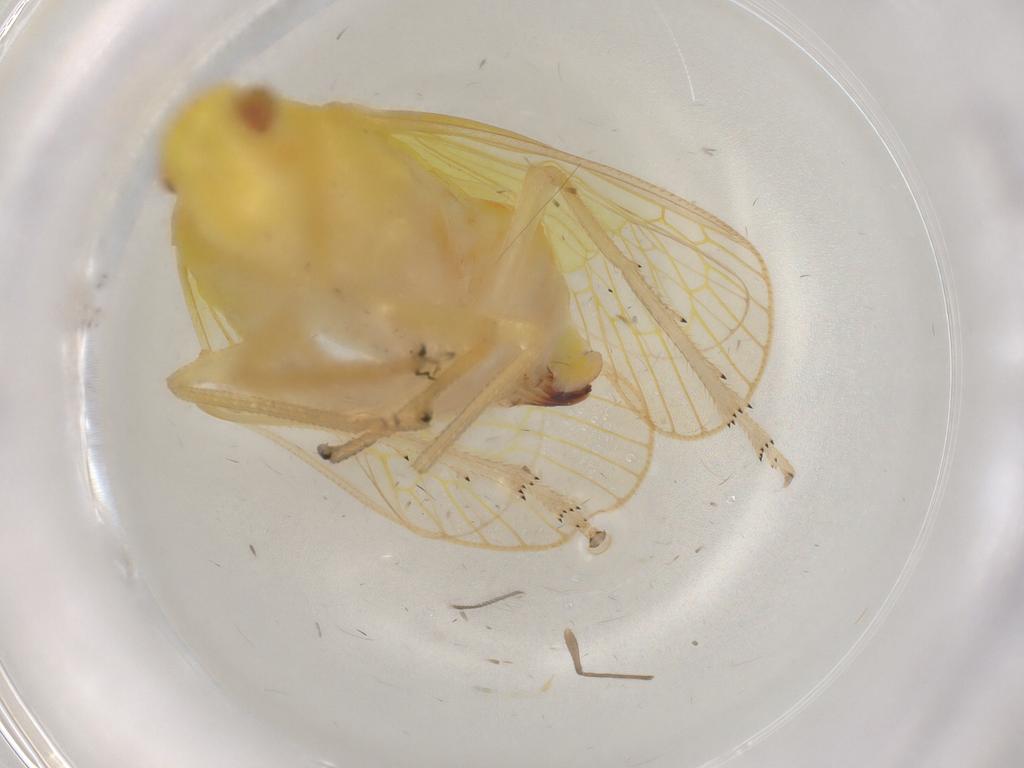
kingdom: Animalia
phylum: Arthropoda
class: Insecta
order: Hemiptera
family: Tropiduchidae
